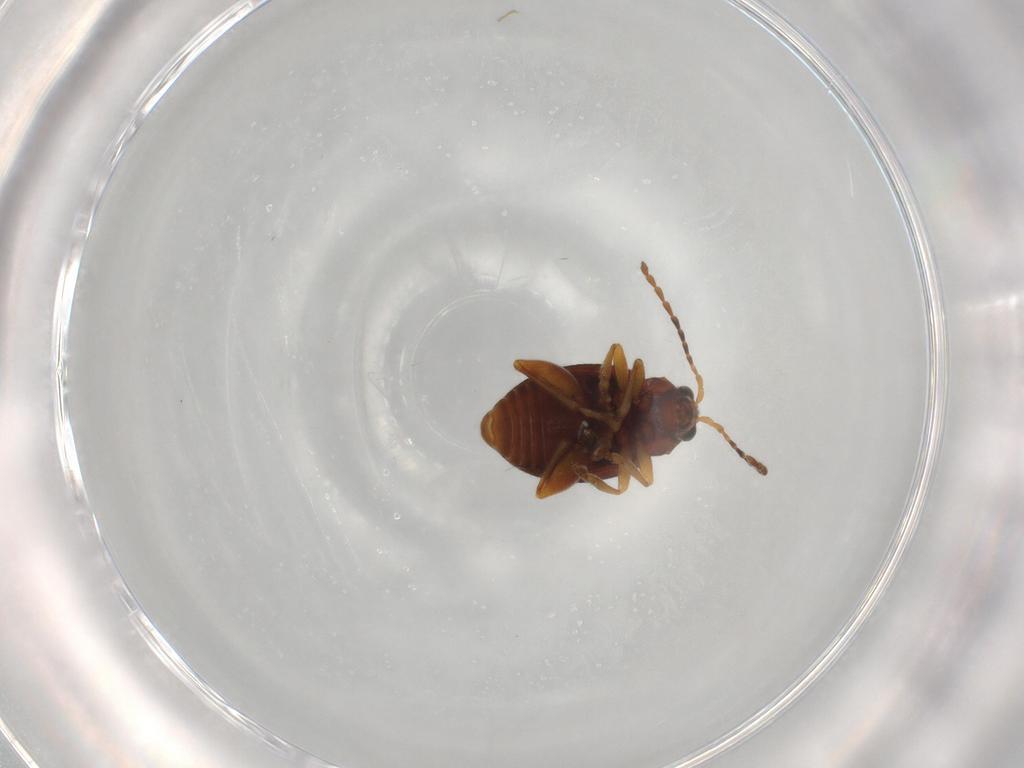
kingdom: Animalia
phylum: Arthropoda
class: Insecta
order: Coleoptera
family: Chrysomelidae
